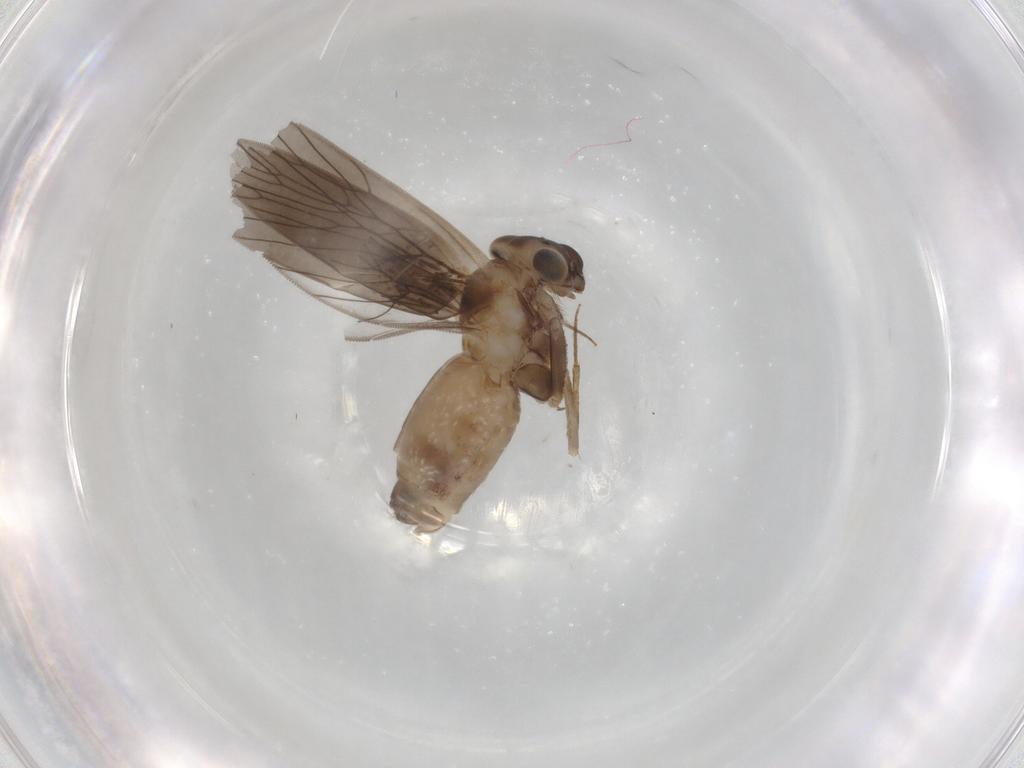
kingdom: Animalia
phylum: Arthropoda
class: Insecta
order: Psocodea
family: Lepidopsocidae
